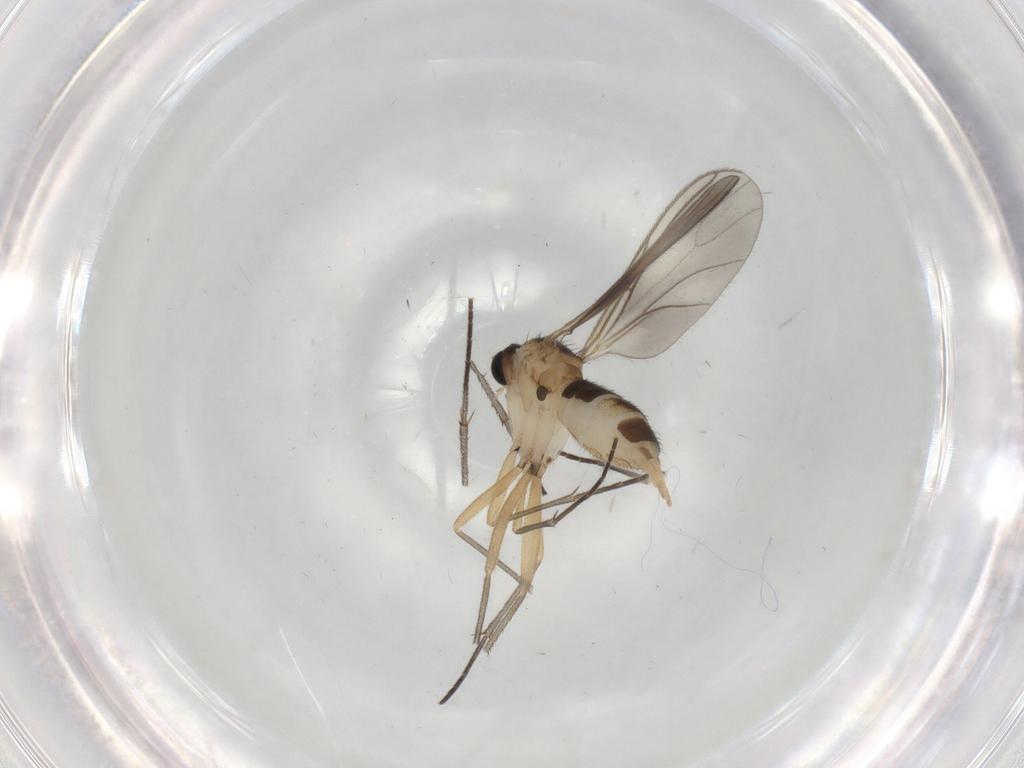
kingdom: Animalia
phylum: Arthropoda
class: Insecta
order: Diptera
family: Sciaridae
